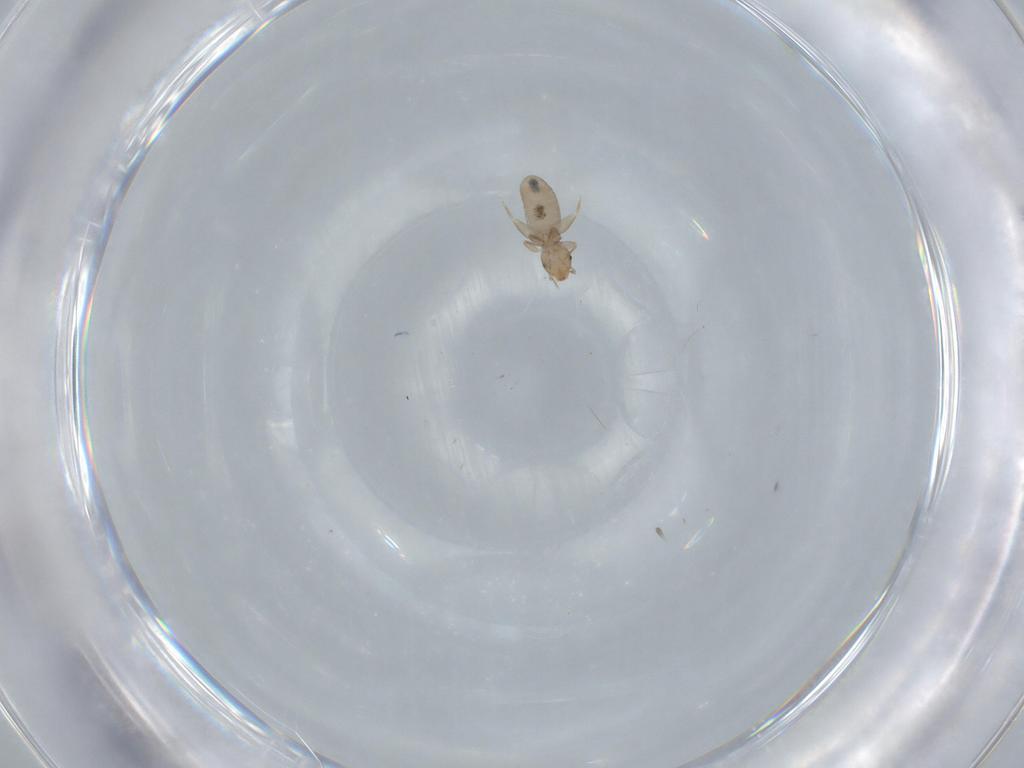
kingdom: Animalia
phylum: Arthropoda
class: Insecta
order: Psocodea
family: Liposcelididae
